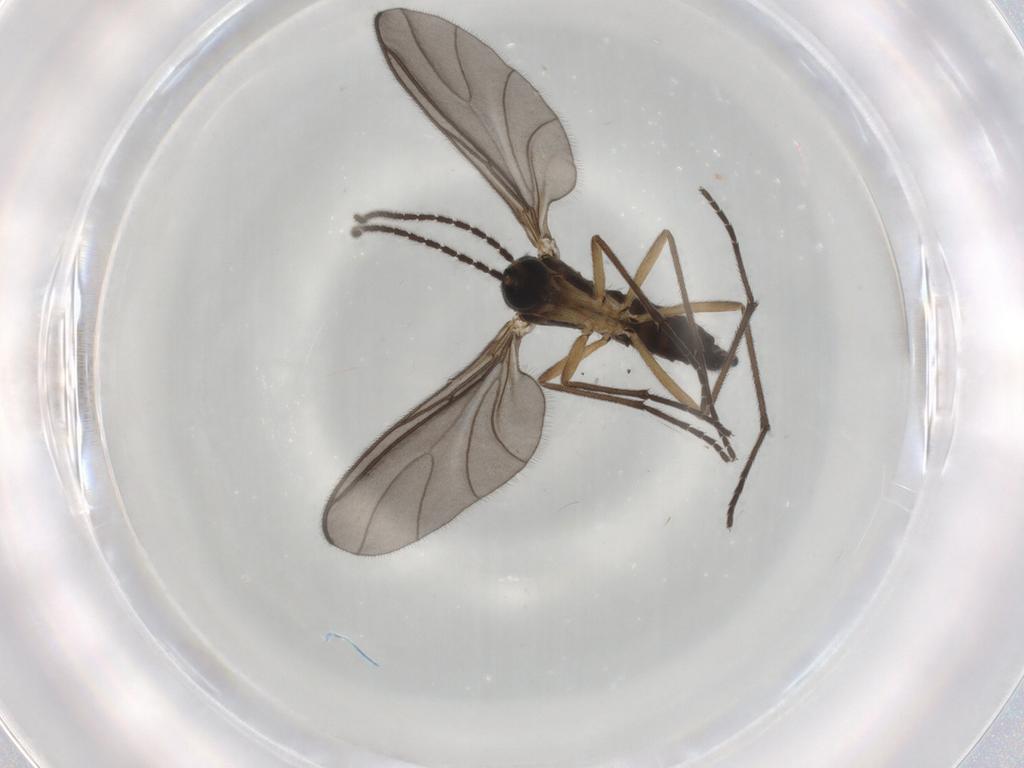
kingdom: Animalia
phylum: Arthropoda
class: Insecta
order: Diptera
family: Sciaridae
